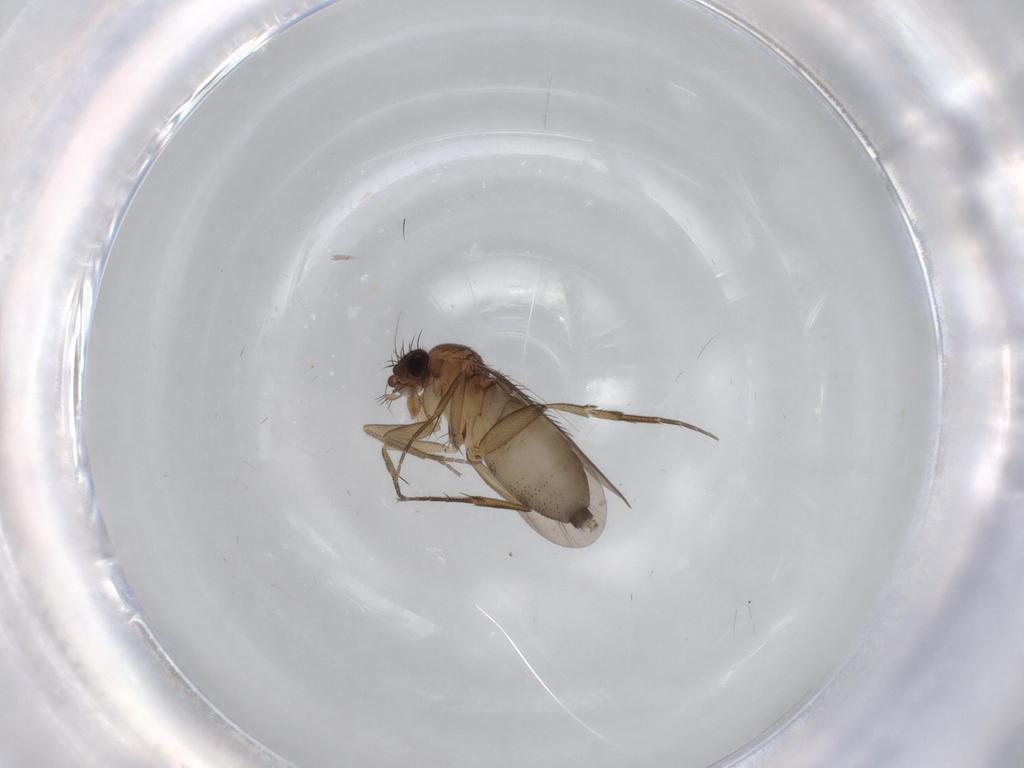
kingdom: Animalia
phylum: Arthropoda
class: Insecta
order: Diptera
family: Phoridae
